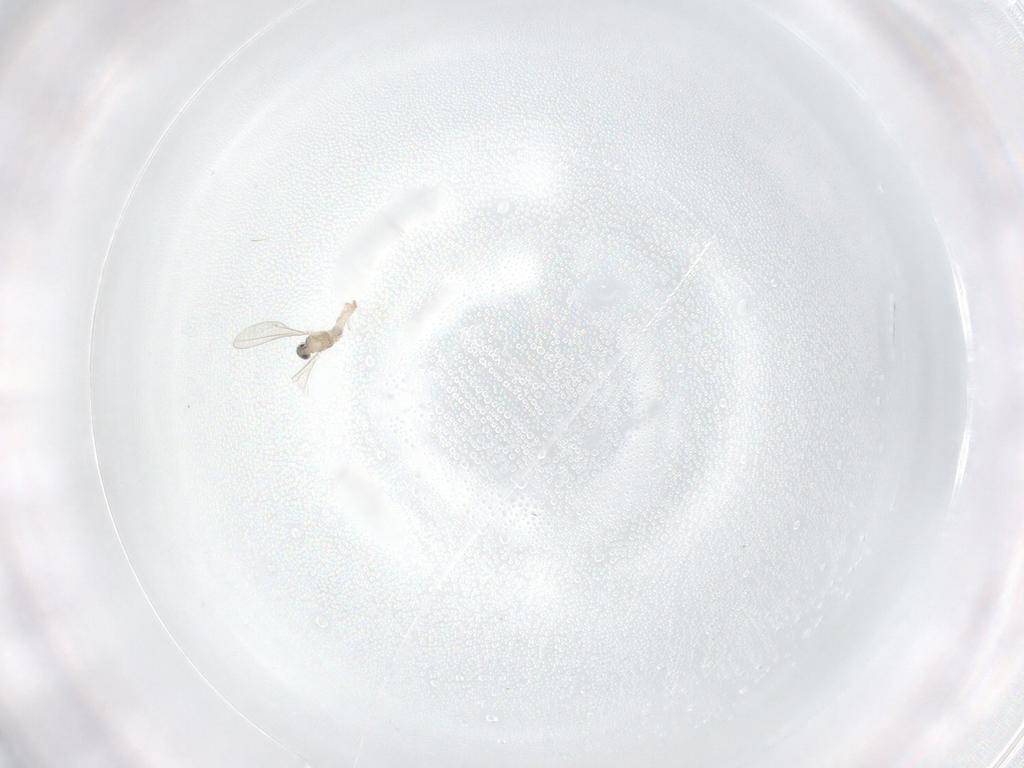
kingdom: Animalia
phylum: Arthropoda
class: Insecta
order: Diptera
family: Cecidomyiidae
